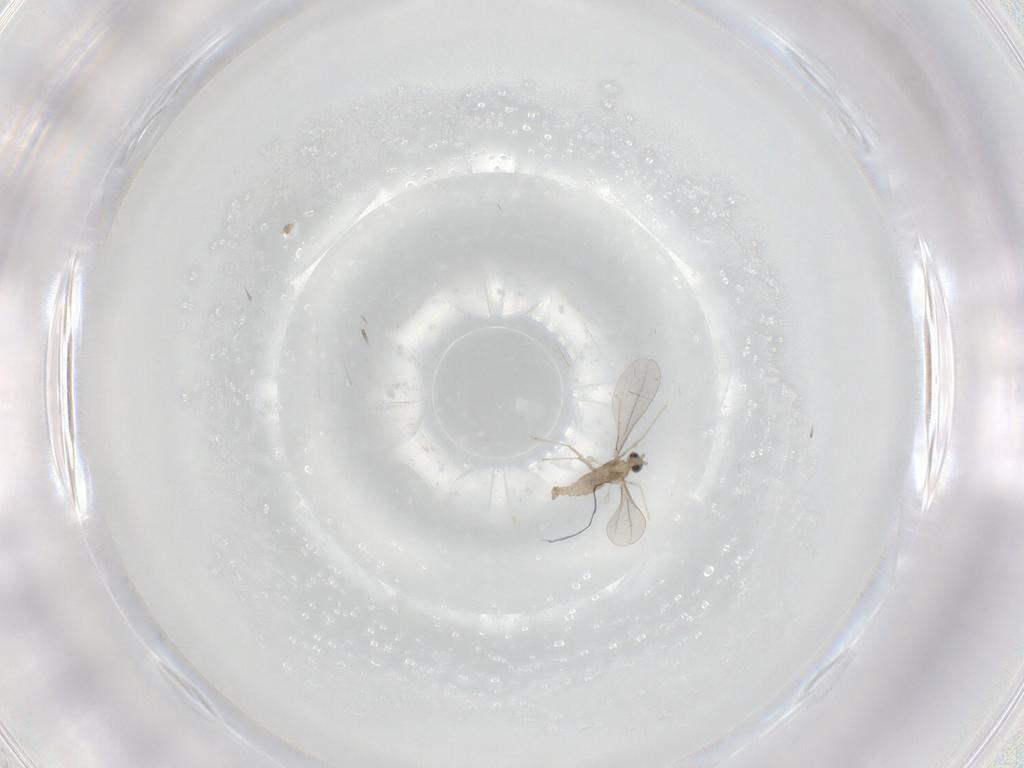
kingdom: Animalia
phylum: Arthropoda
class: Insecta
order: Diptera
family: Cecidomyiidae
